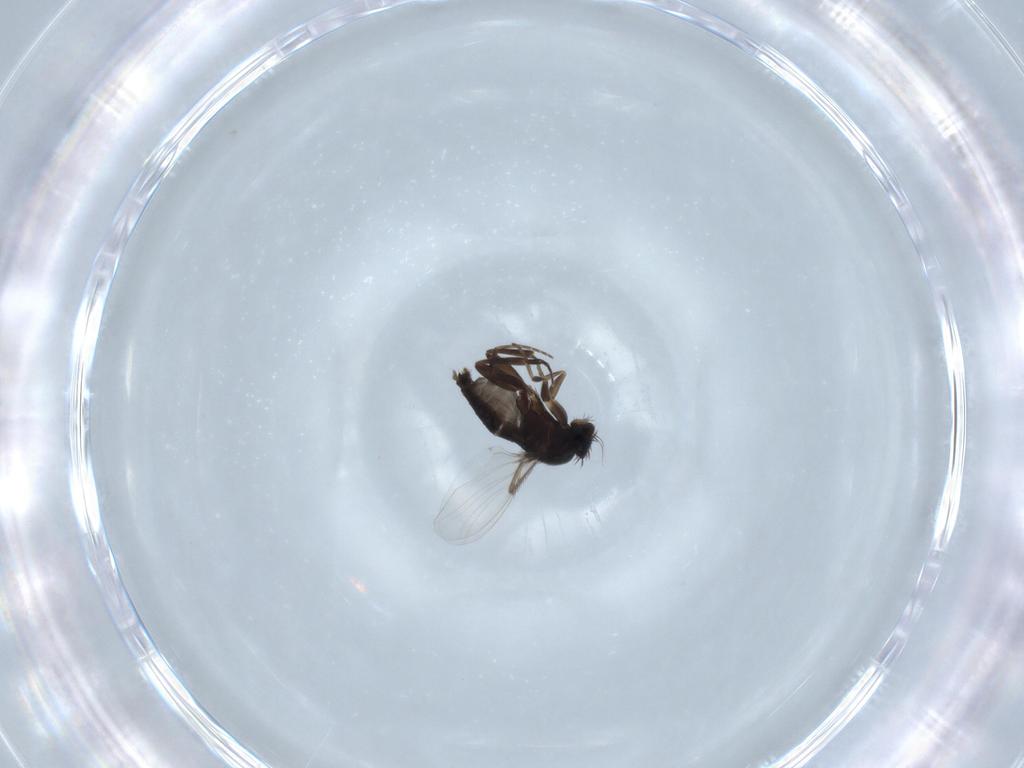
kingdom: Animalia
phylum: Arthropoda
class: Insecta
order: Diptera
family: Phoridae
